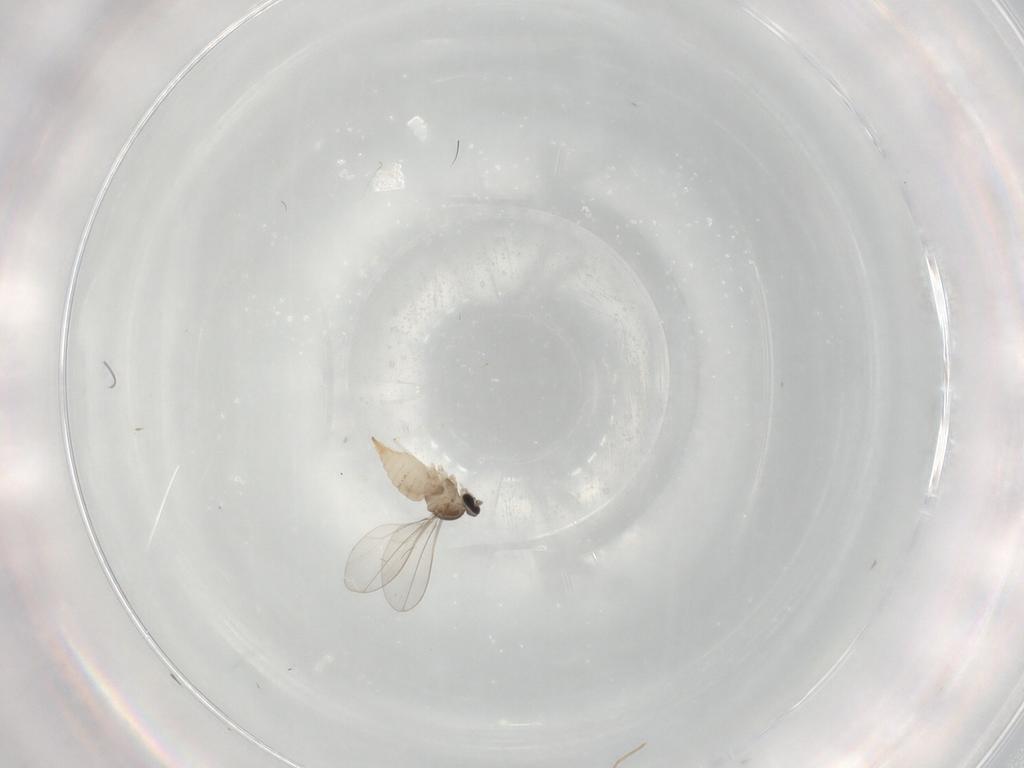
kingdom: Animalia
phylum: Arthropoda
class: Insecta
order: Diptera
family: Cecidomyiidae
